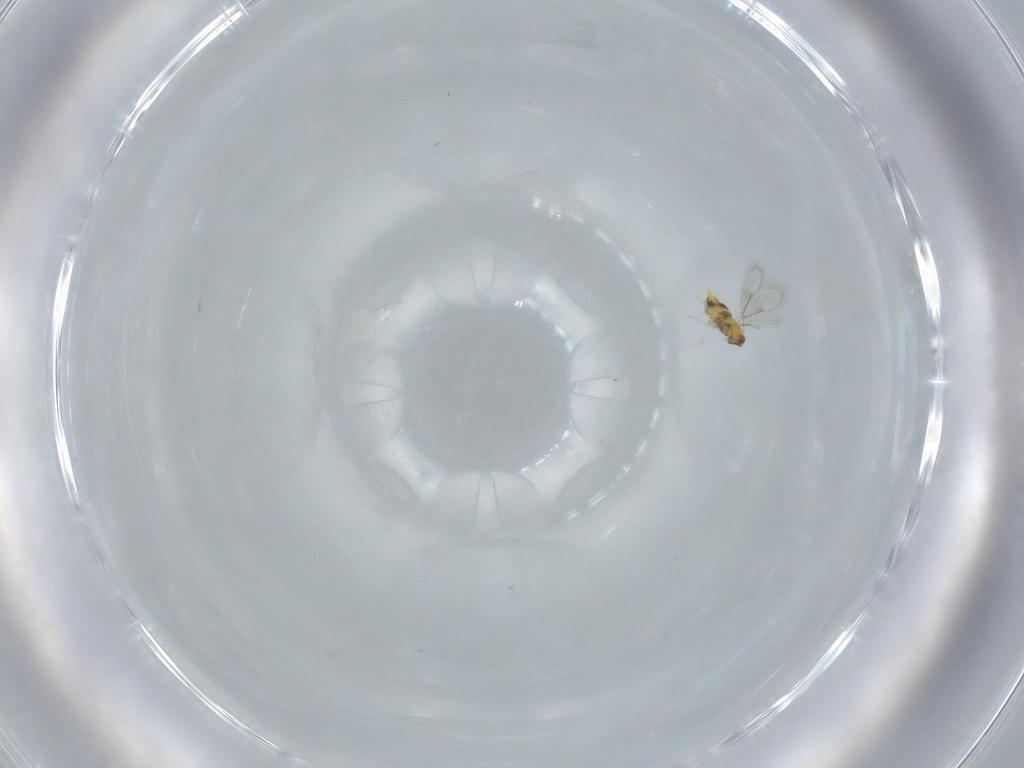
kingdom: Animalia
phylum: Arthropoda
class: Insecta
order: Hymenoptera
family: Aphelinidae
